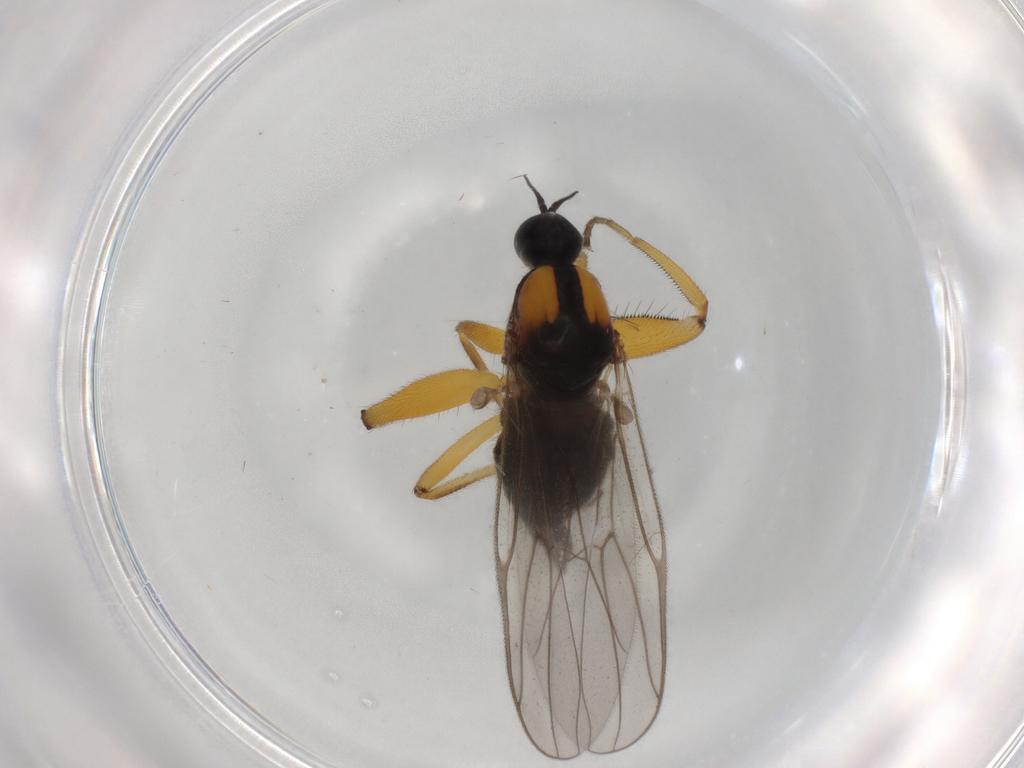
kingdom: Animalia
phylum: Arthropoda
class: Insecta
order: Diptera
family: Hybotidae
